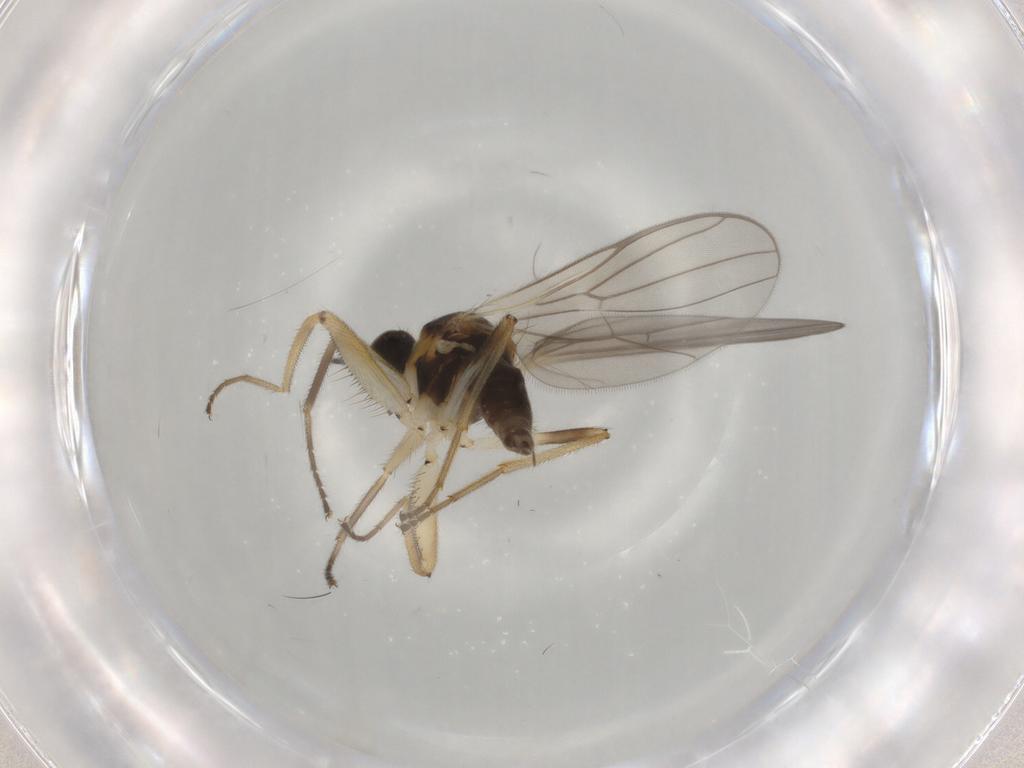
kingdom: Animalia
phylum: Arthropoda
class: Insecta
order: Diptera
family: Hybotidae
